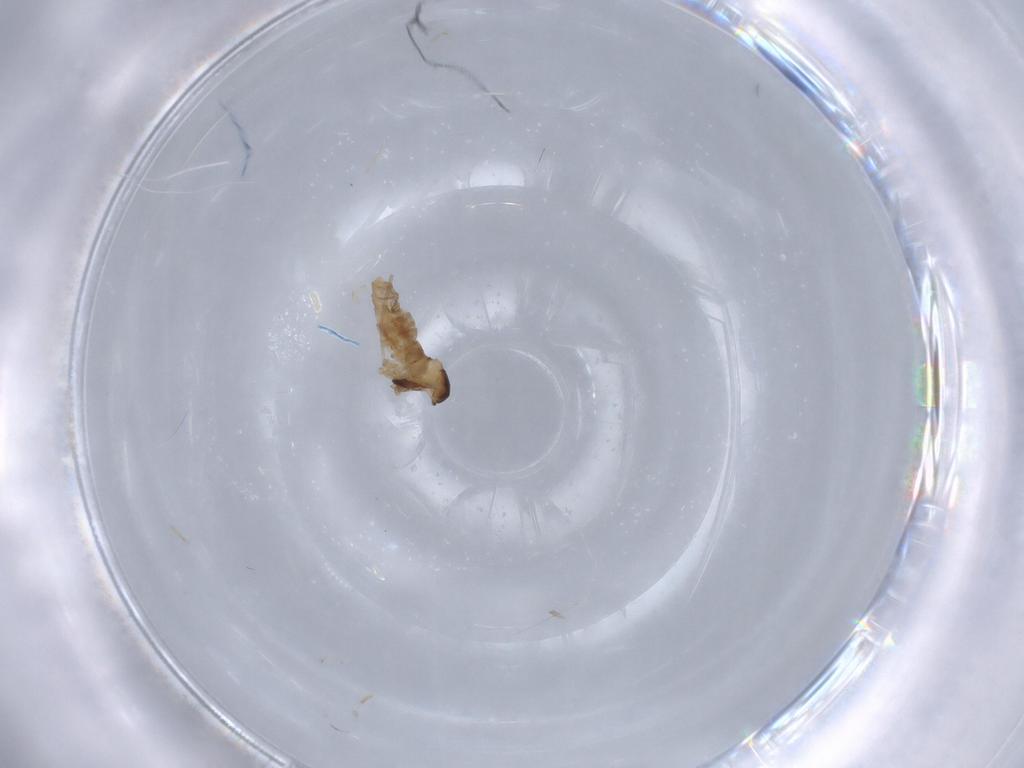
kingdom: Animalia
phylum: Arthropoda
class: Insecta
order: Diptera
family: Cecidomyiidae
